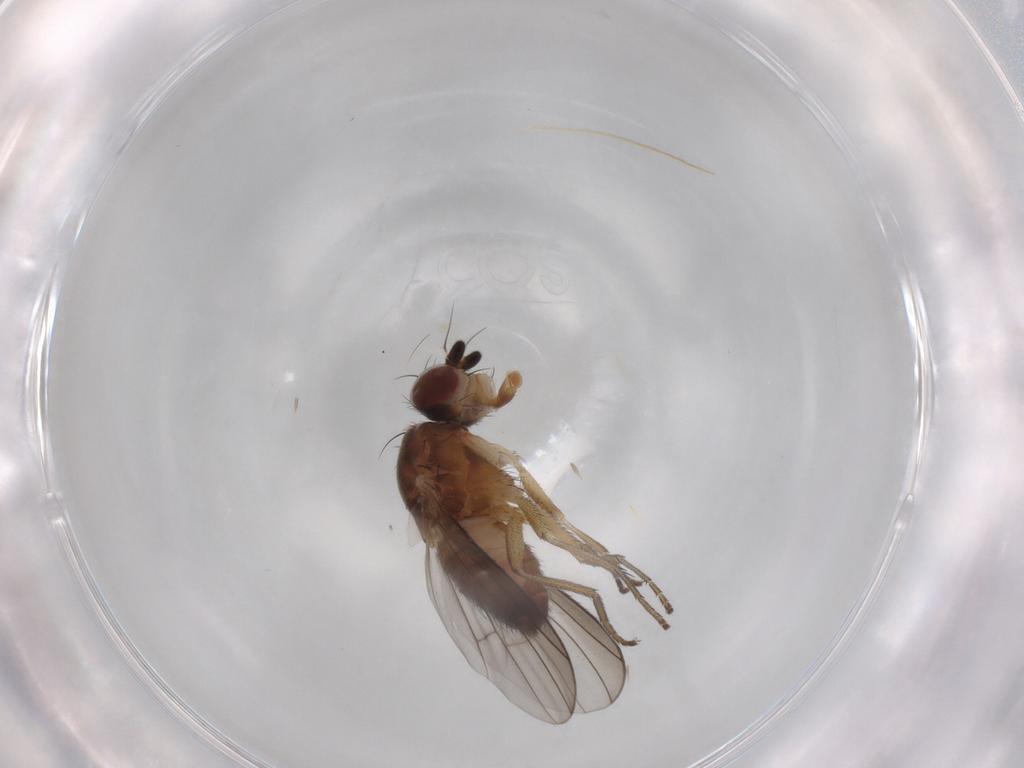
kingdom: Animalia
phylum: Arthropoda
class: Insecta
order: Diptera
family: Heleomyzidae
